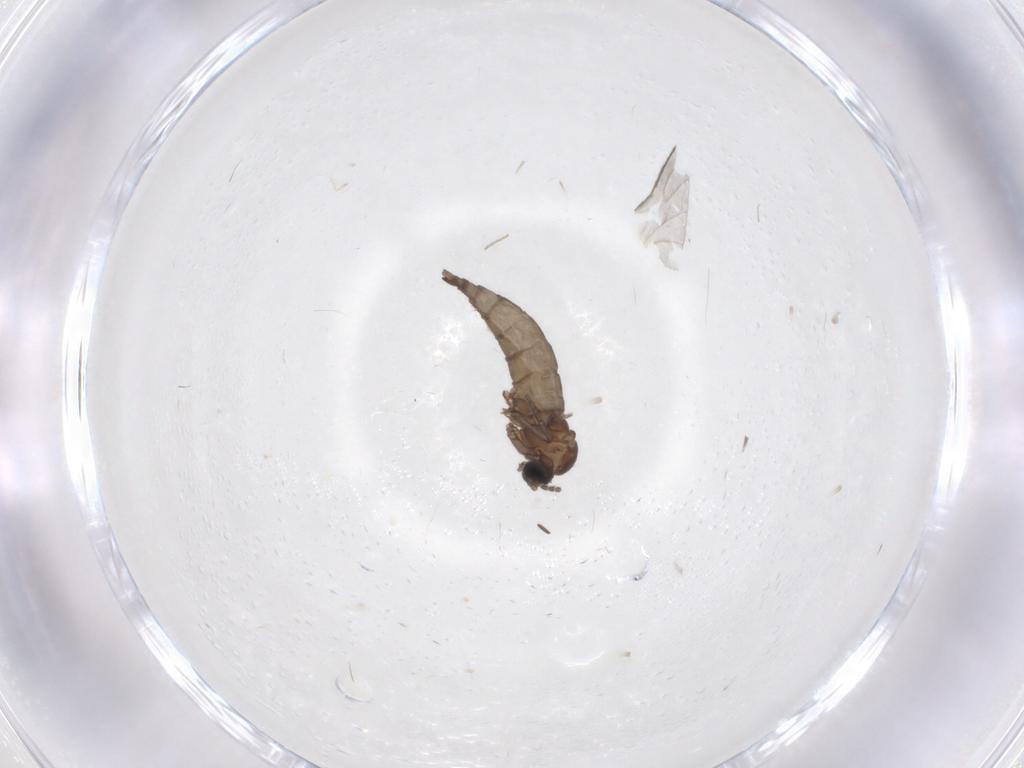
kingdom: Animalia
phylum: Arthropoda
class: Insecta
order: Diptera
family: Sciaridae
